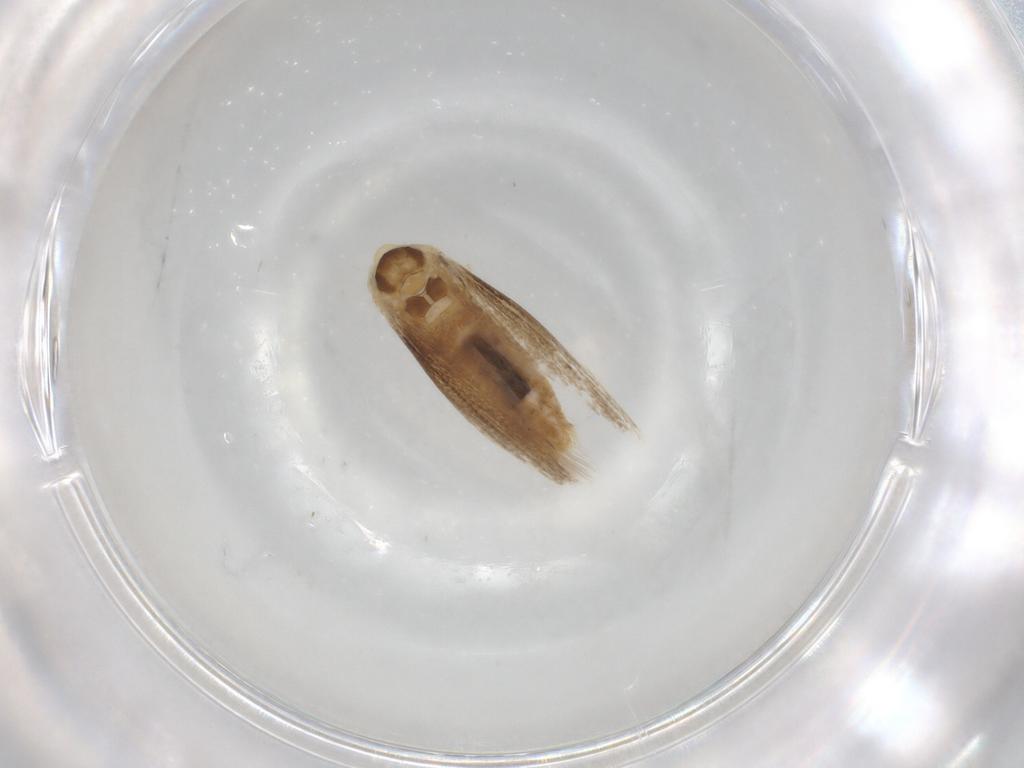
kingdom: Animalia
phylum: Arthropoda
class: Insecta
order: Lepidoptera
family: Bucculatricidae
